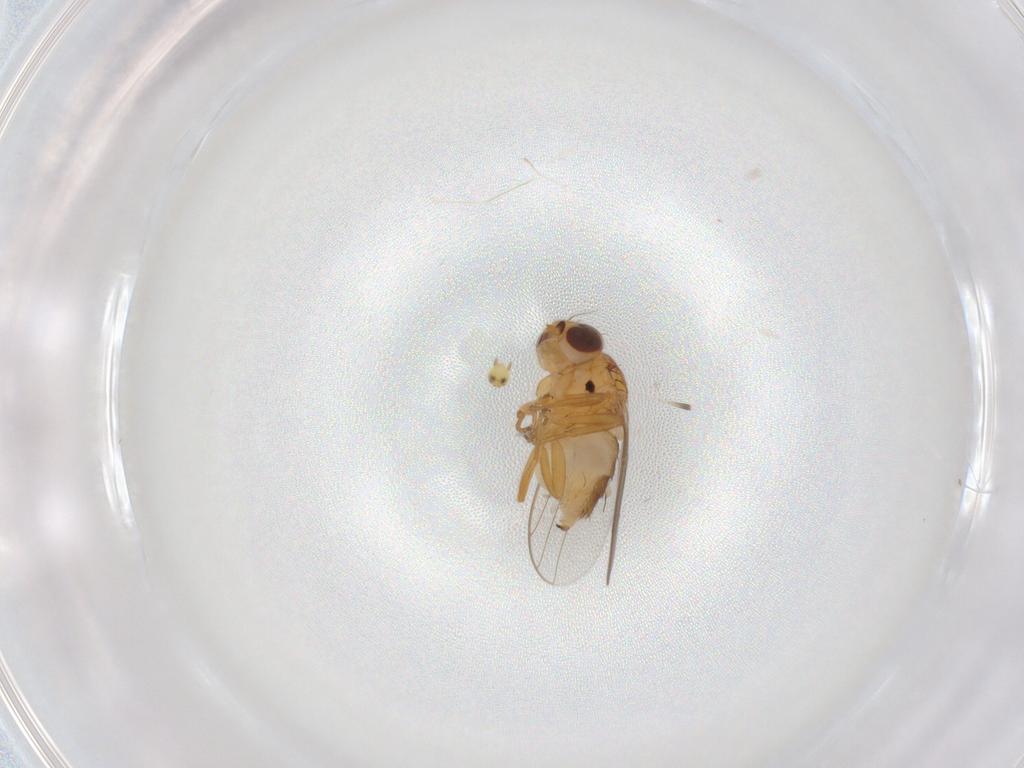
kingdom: Animalia
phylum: Arthropoda
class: Insecta
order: Diptera
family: Chloropidae
